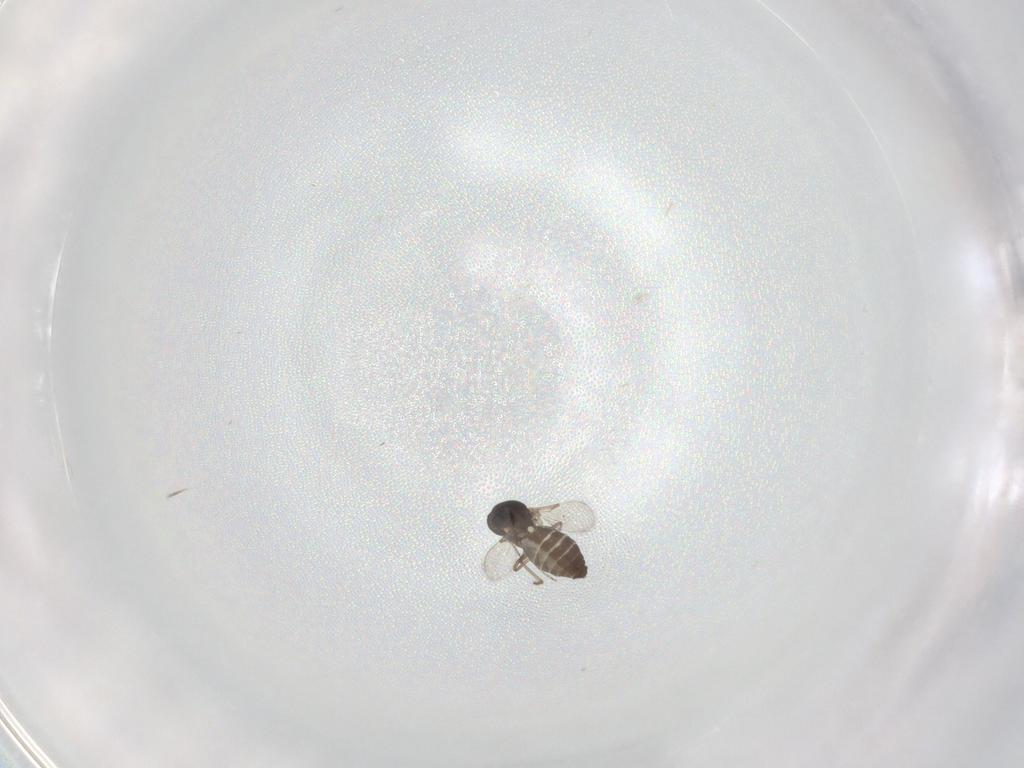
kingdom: Animalia
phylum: Arthropoda
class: Insecta
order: Diptera
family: Ceratopogonidae
